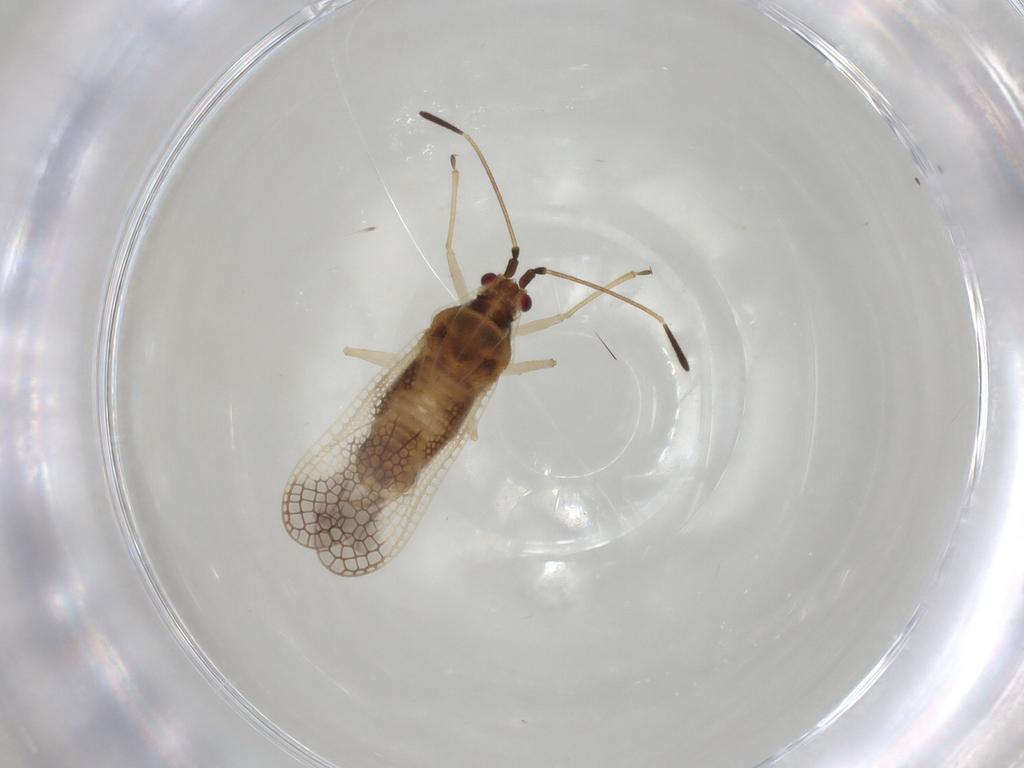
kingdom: Animalia
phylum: Arthropoda
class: Insecta
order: Hemiptera
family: Tingidae
